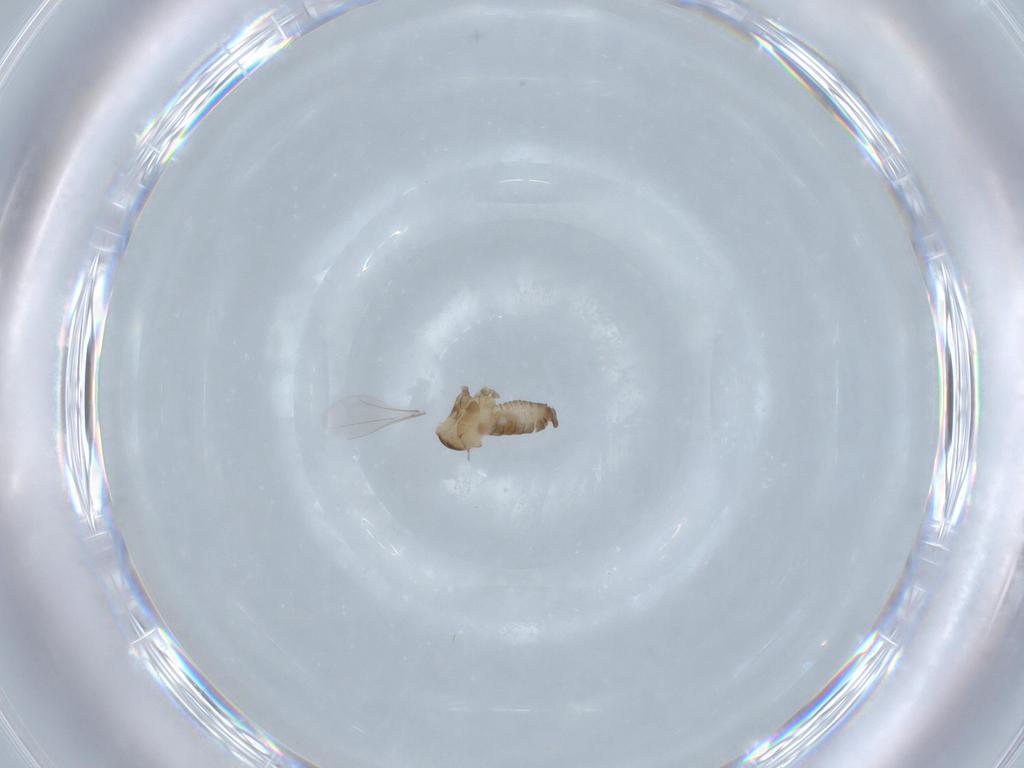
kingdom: Animalia
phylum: Arthropoda
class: Insecta
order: Diptera
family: Cecidomyiidae
